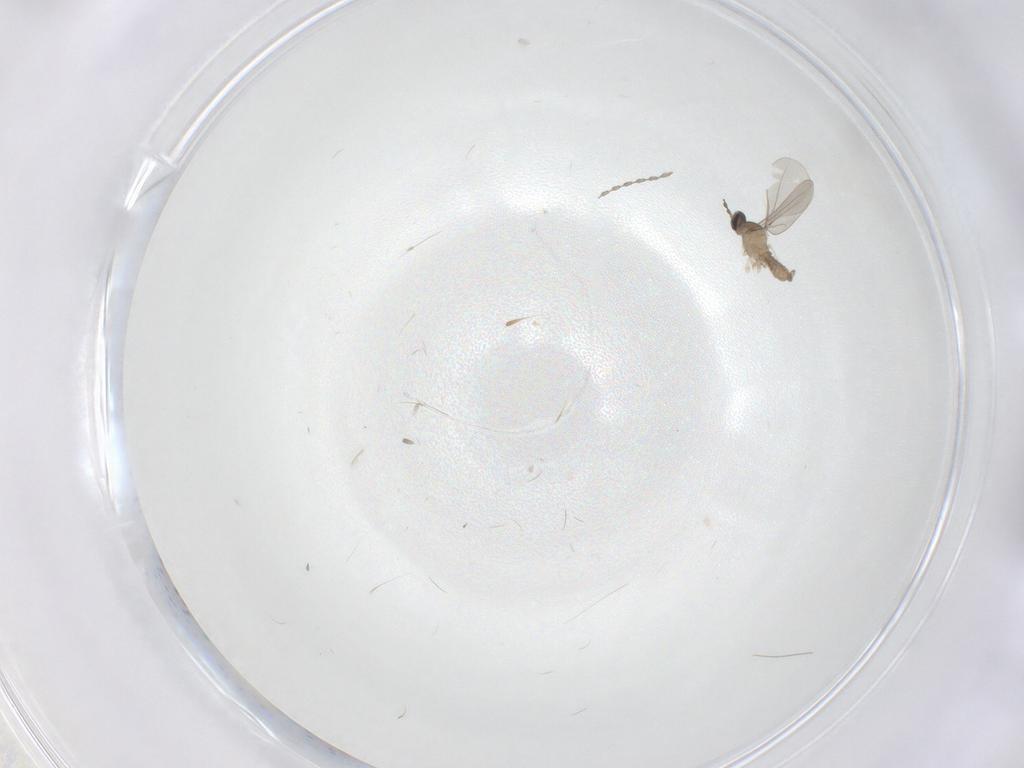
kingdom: Animalia
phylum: Arthropoda
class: Insecta
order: Diptera
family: Cecidomyiidae
